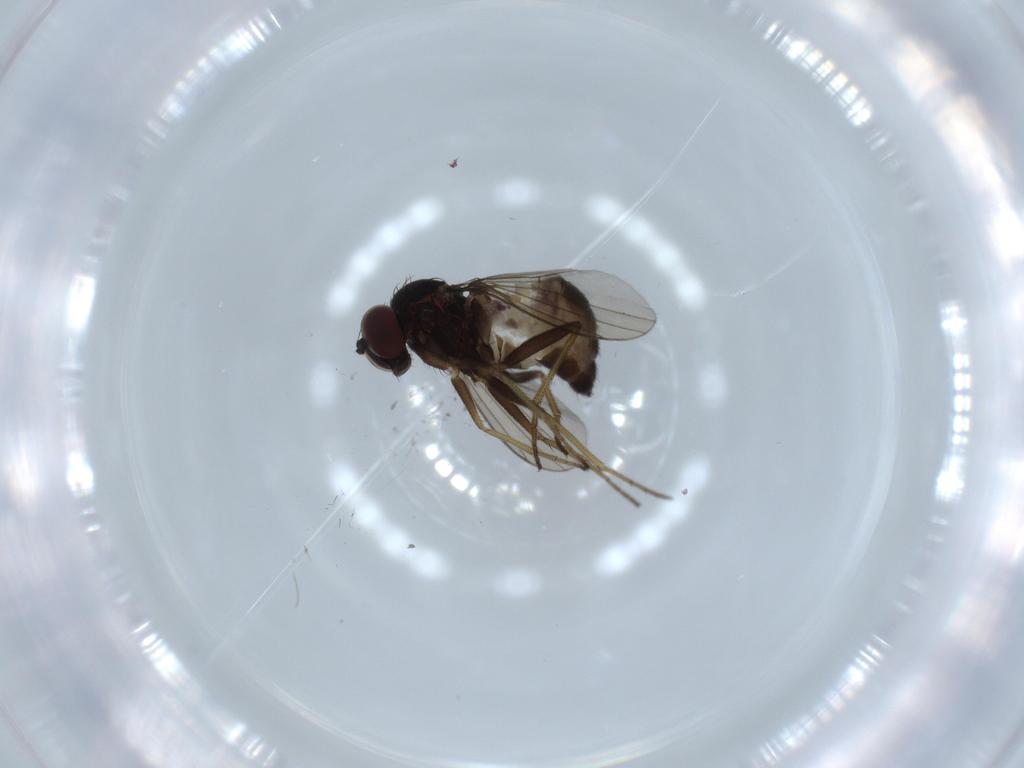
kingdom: Animalia
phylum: Arthropoda
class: Insecta
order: Diptera
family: Dolichopodidae
